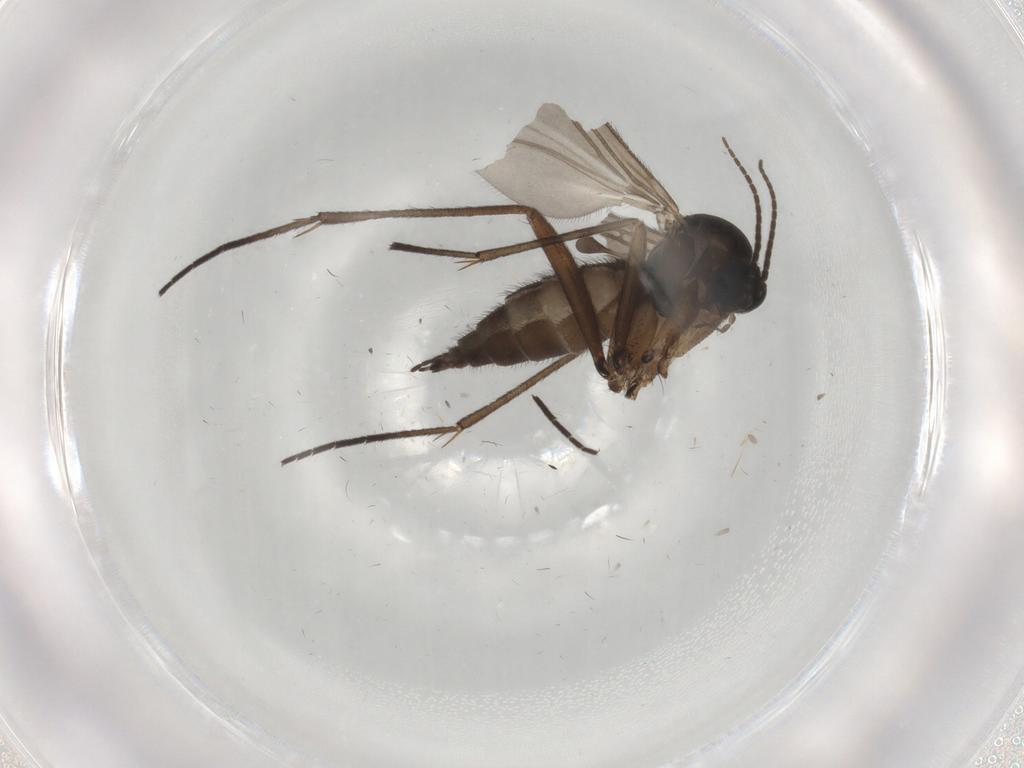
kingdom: Animalia
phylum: Arthropoda
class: Insecta
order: Diptera
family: Sciaridae
